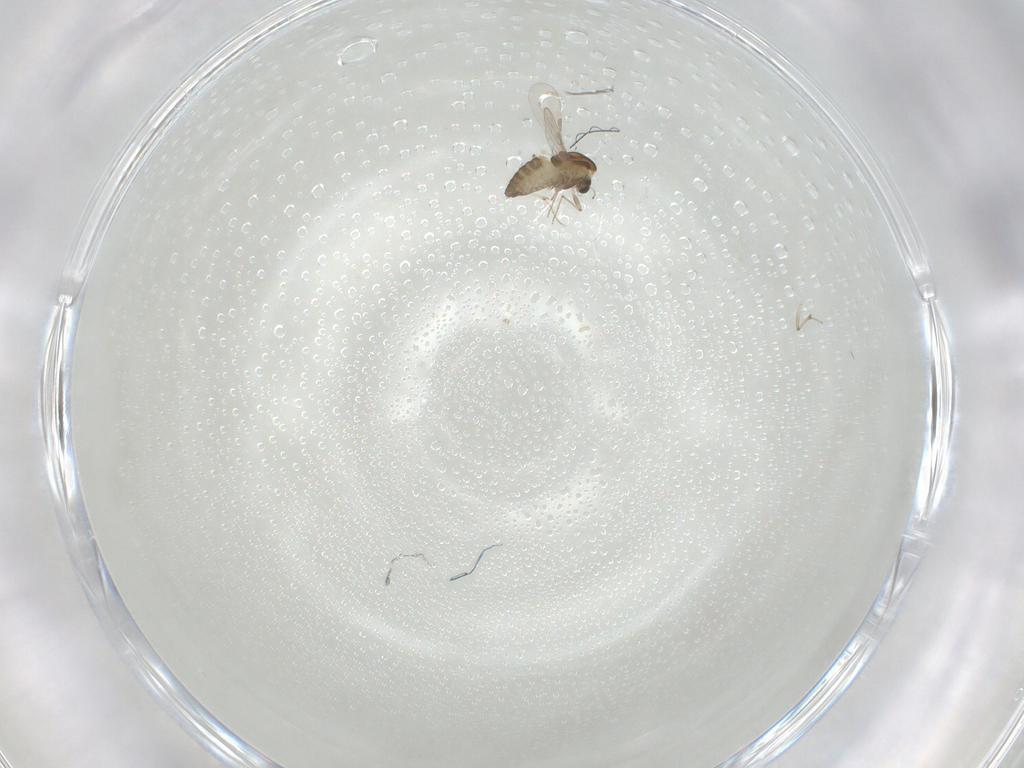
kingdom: Animalia
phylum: Arthropoda
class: Insecta
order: Diptera
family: Chironomidae
